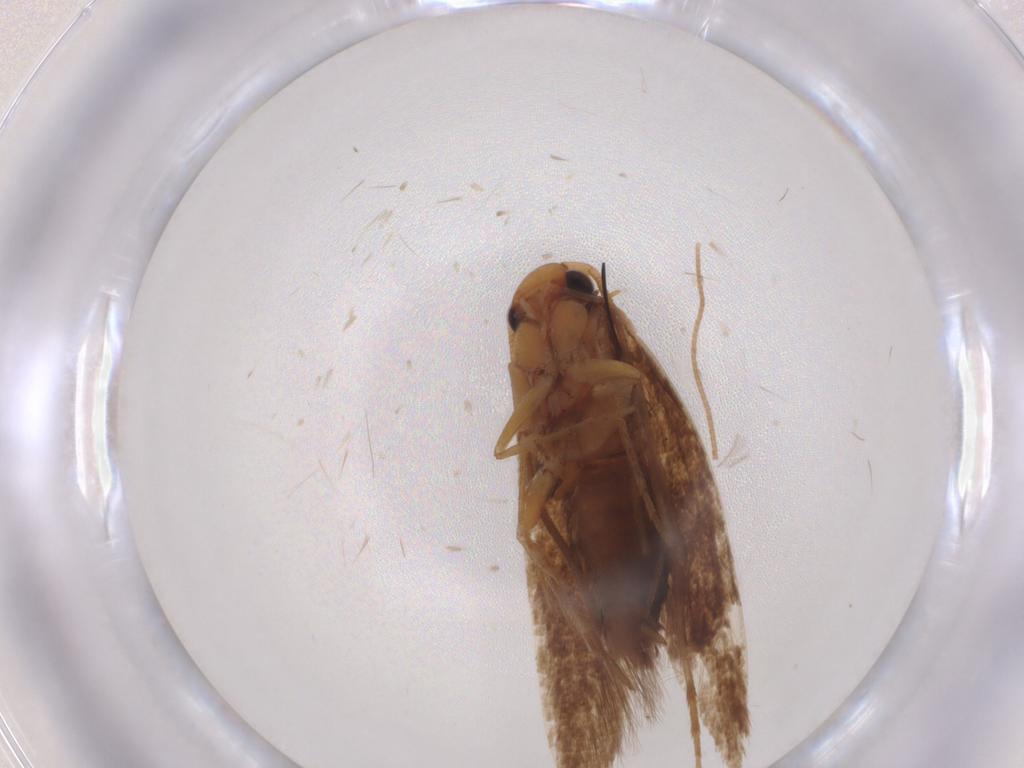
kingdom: Animalia
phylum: Arthropoda
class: Insecta
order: Lepidoptera
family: Tineidae
